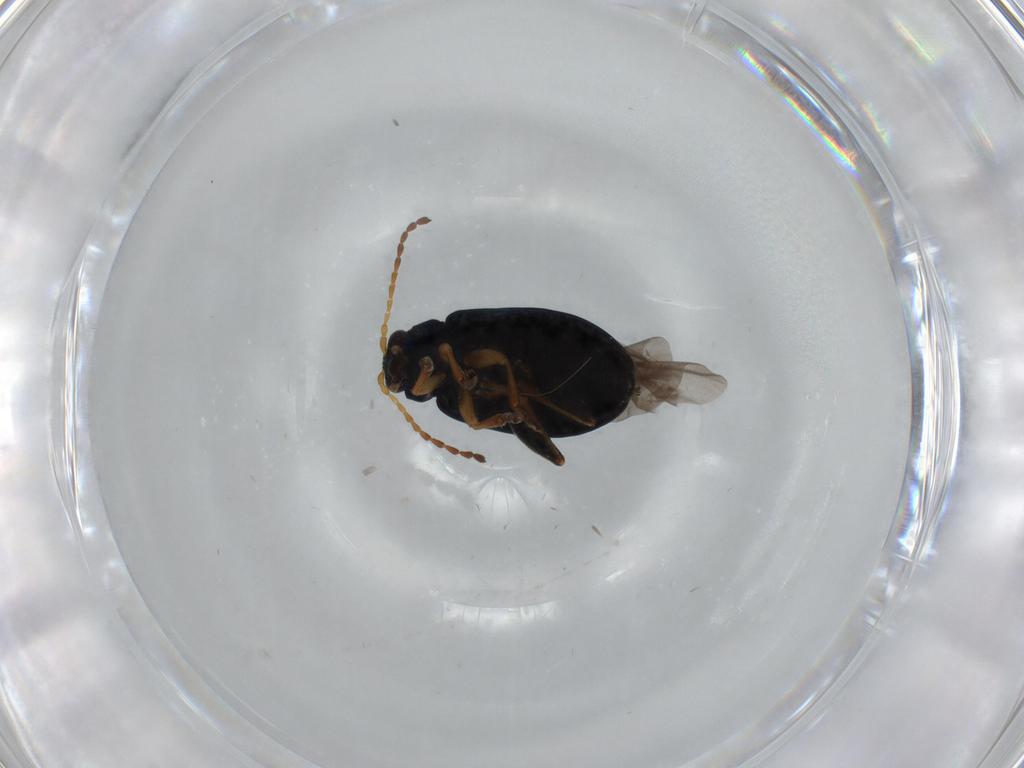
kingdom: Animalia
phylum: Arthropoda
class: Insecta
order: Coleoptera
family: Chrysomelidae
